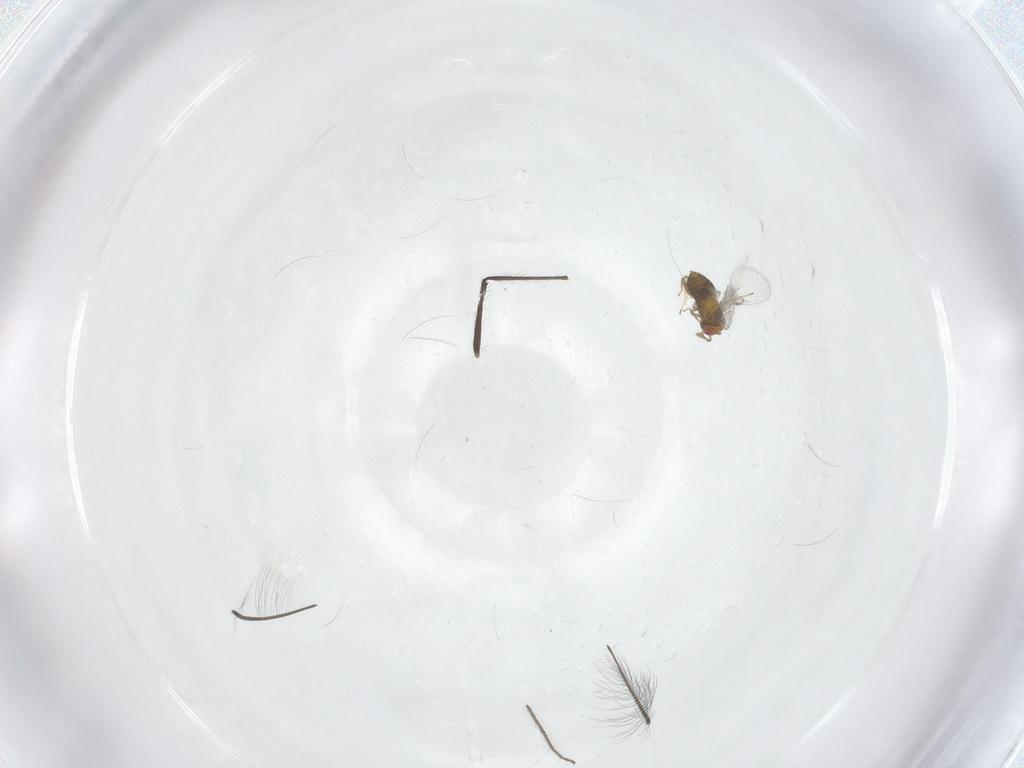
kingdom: Animalia
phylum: Arthropoda
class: Insecta
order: Hymenoptera
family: Trichogrammatidae
